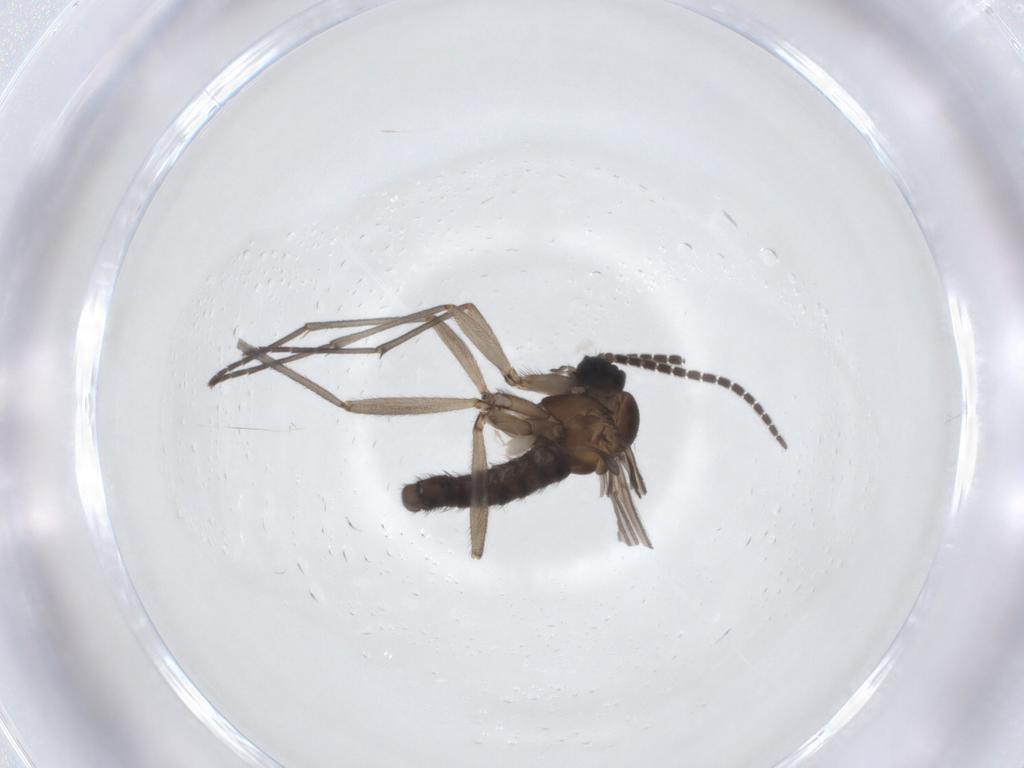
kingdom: Animalia
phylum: Arthropoda
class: Insecta
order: Diptera
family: Sciaridae
